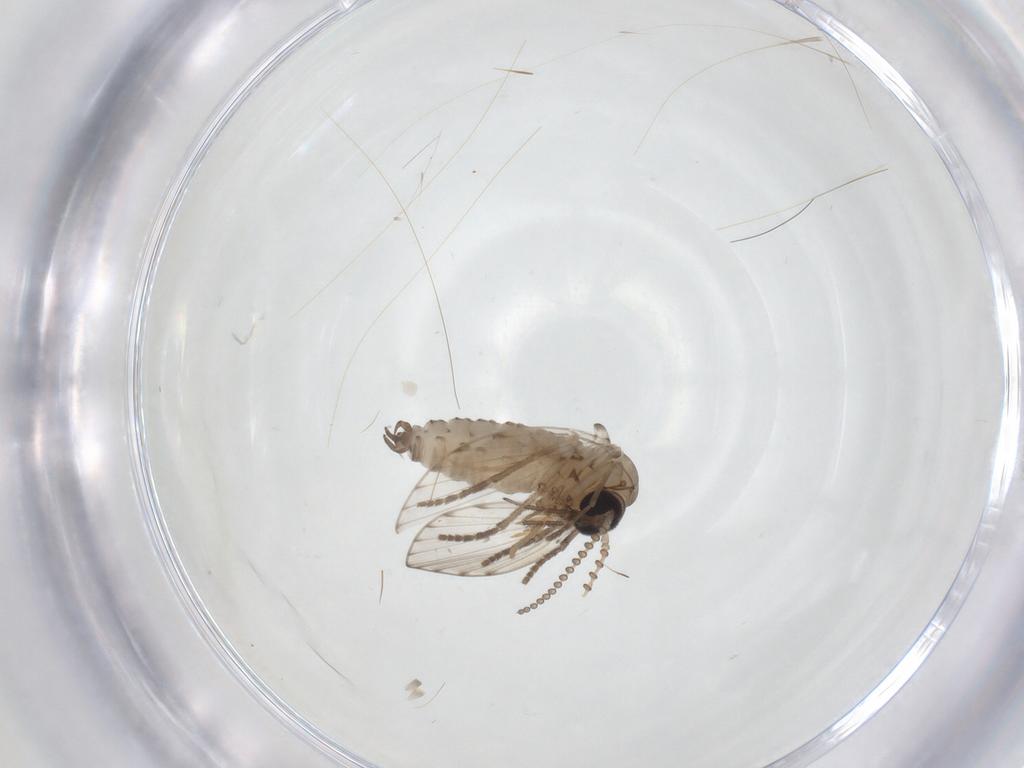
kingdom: Animalia
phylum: Arthropoda
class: Insecta
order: Diptera
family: Psychodidae
